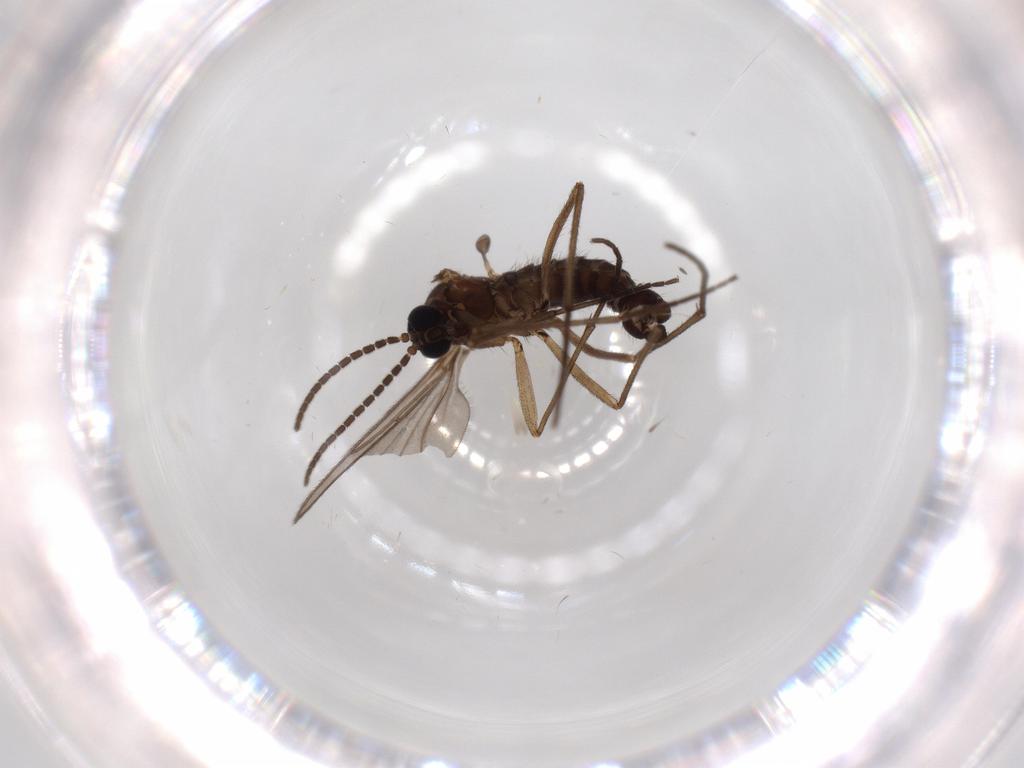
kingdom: Animalia
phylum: Arthropoda
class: Insecta
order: Diptera
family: Sciaridae
